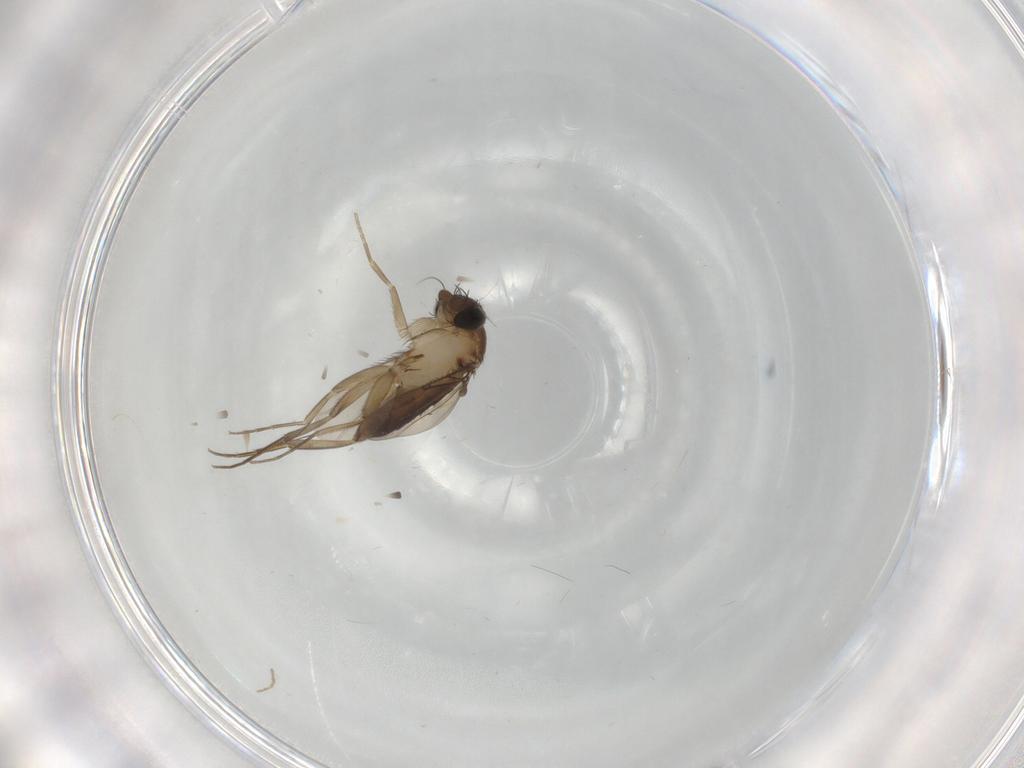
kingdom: Animalia
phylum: Arthropoda
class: Insecta
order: Diptera
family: Phoridae
